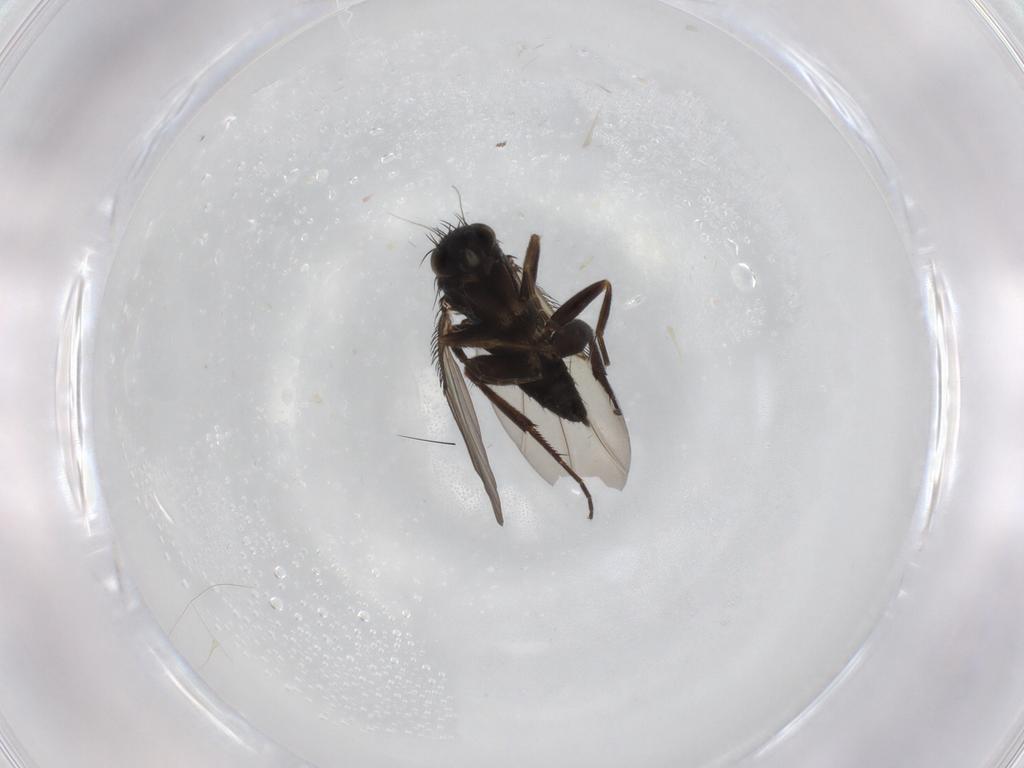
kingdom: Animalia
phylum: Arthropoda
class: Insecta
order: Diptera
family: Phoridae
